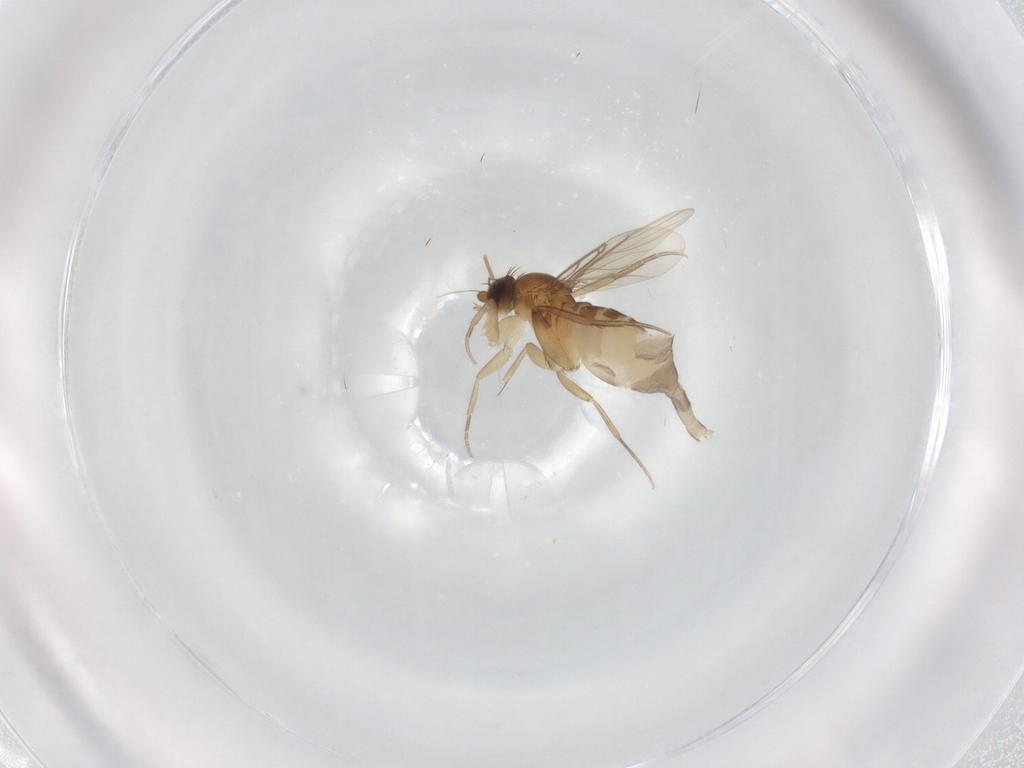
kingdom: Animalia
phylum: Arthropoda
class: Insecta
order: Diptera
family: Phoridae
